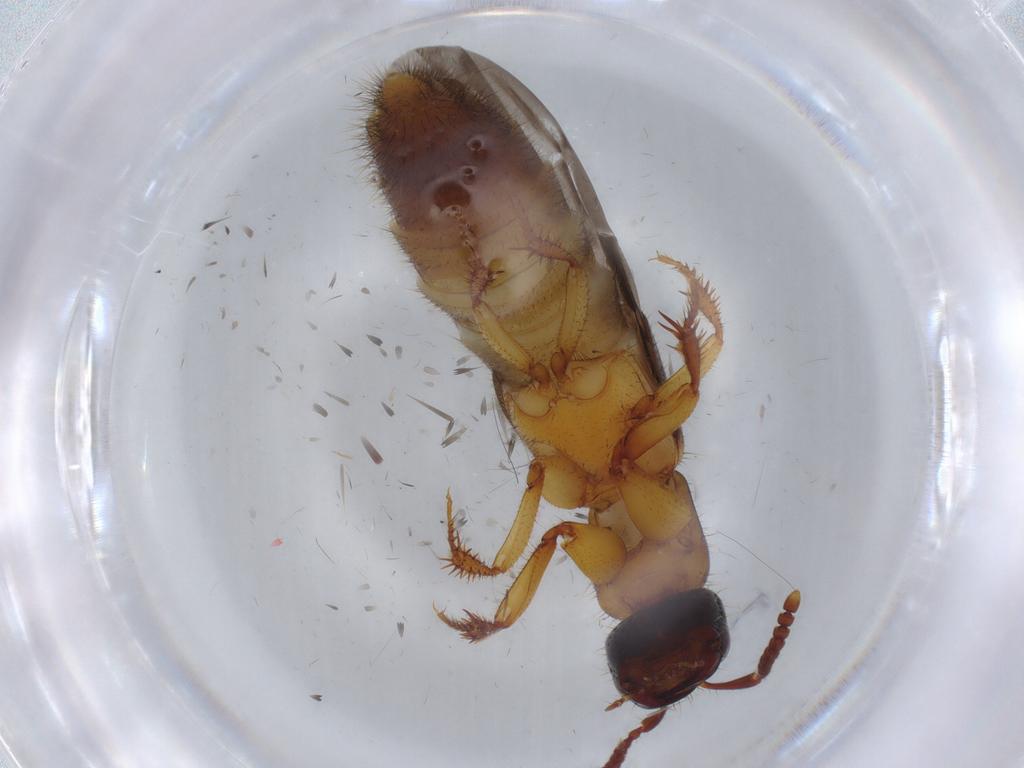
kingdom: Animalia
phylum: Arthropoda
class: Insecta
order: Coleoptera
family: Staphylinidae
